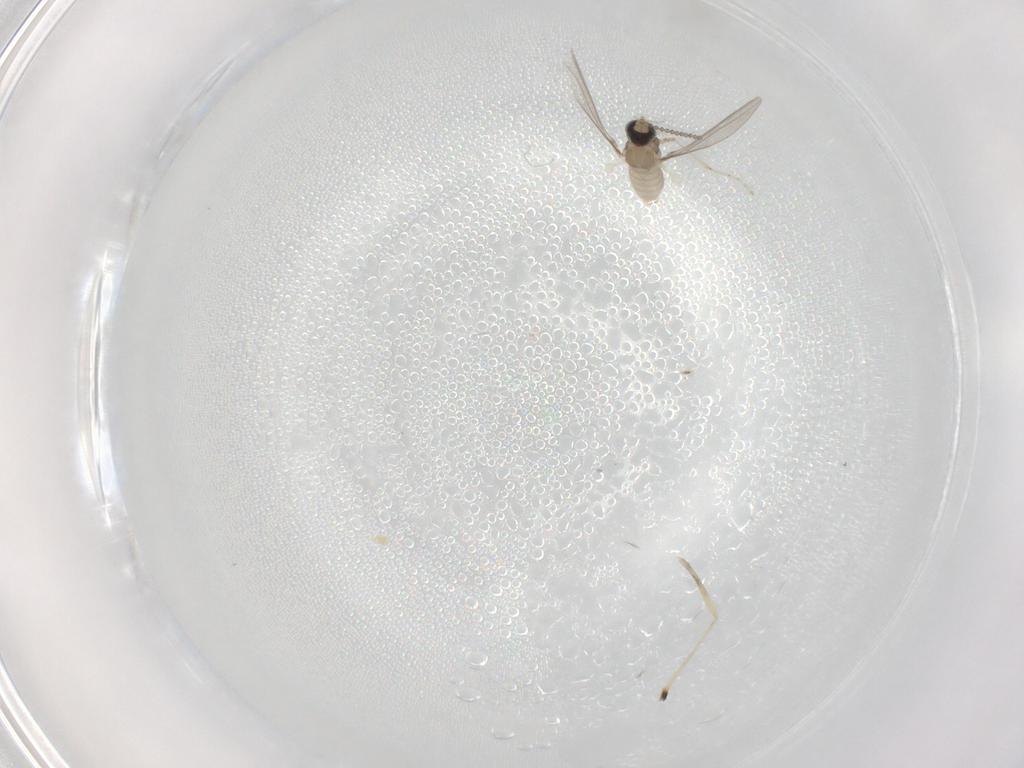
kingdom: Animalia
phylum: Arthropoda
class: Insecta
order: Diptera
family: Cecidomyiidae
